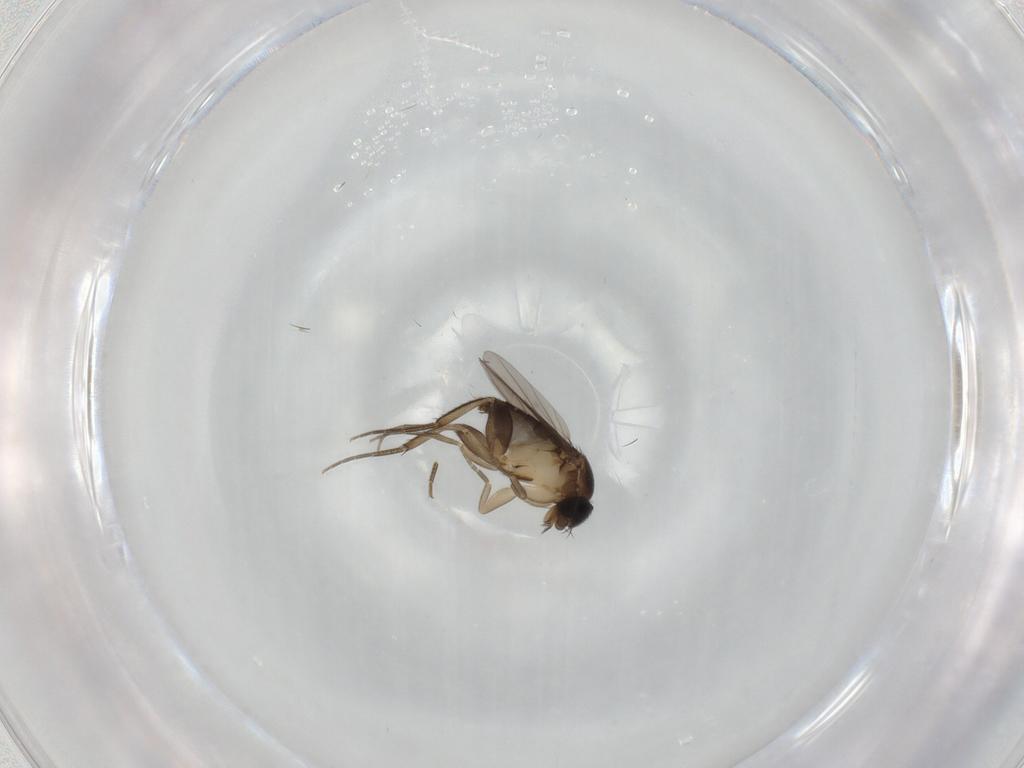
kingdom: Animalia
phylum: Arthropoda
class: Insecta
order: Diptera
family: Phoridae
